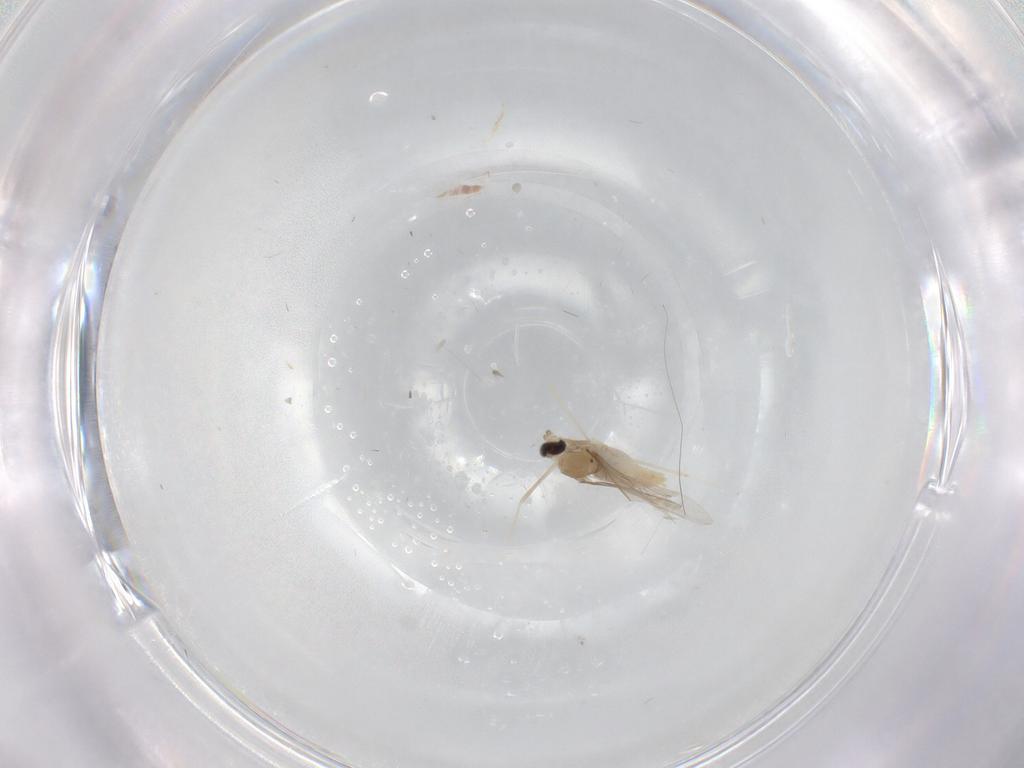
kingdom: Animalia
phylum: Arthropoda
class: Insecta
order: Diptera
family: Cecidomyiidae
